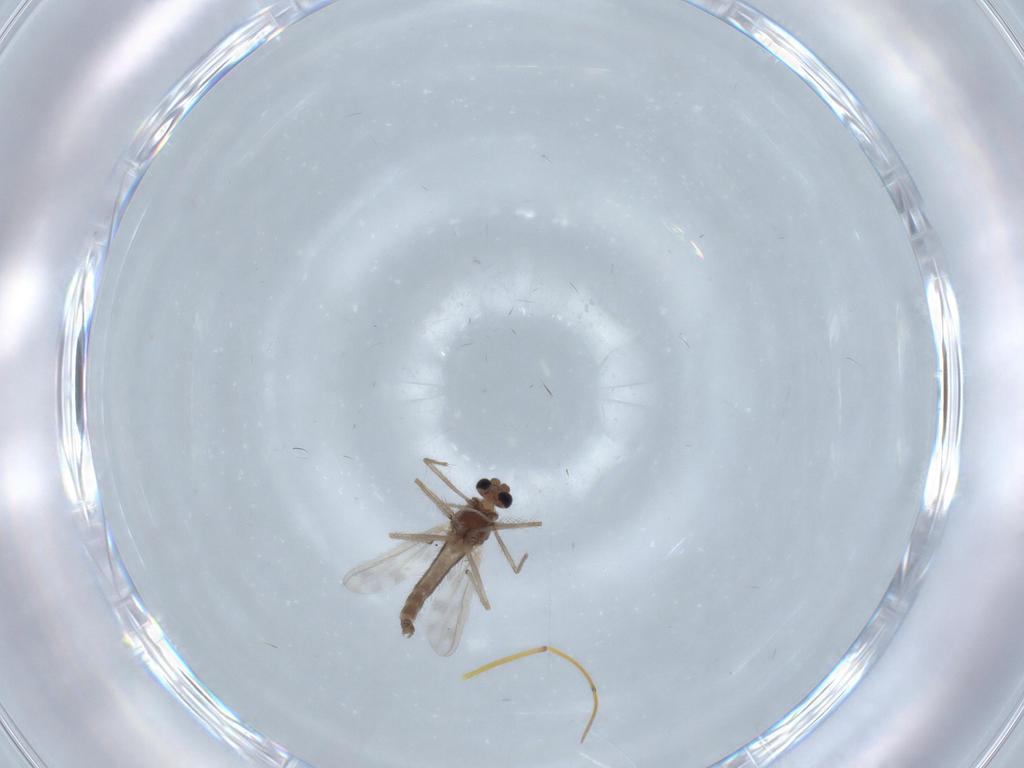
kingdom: Animalia
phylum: Arthropoda
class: Insecta
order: Diptera
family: Chironomidae
